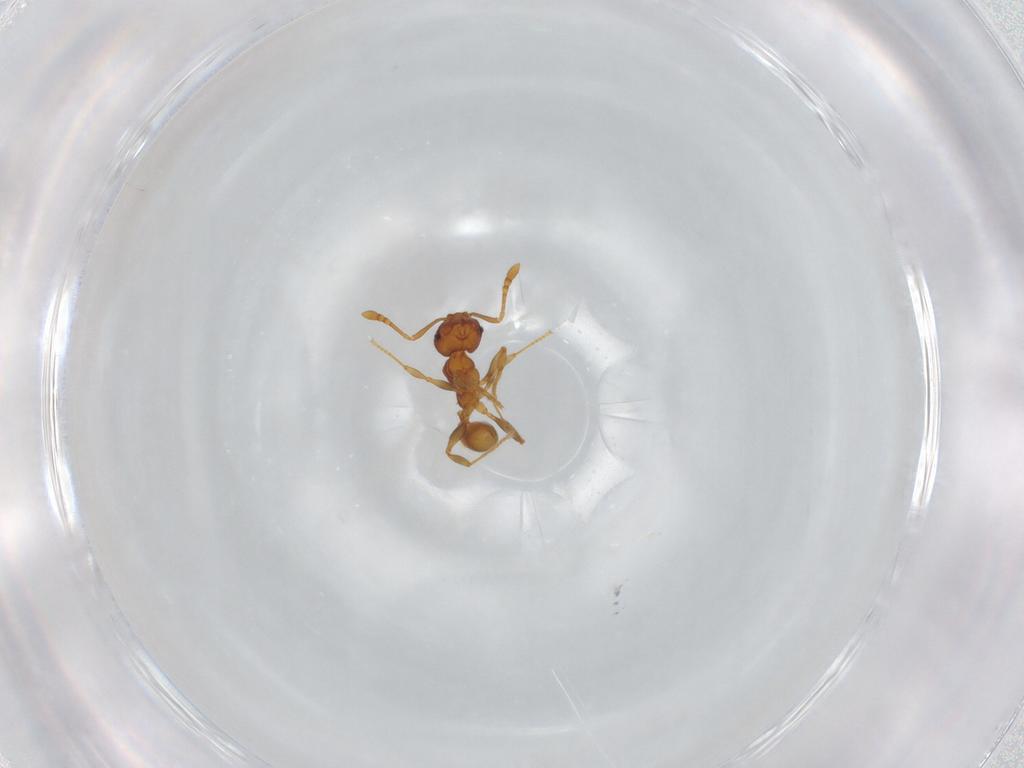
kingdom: Animalia
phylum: Arthropoda
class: Insecta
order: Hymenoptera
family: Formicidae
